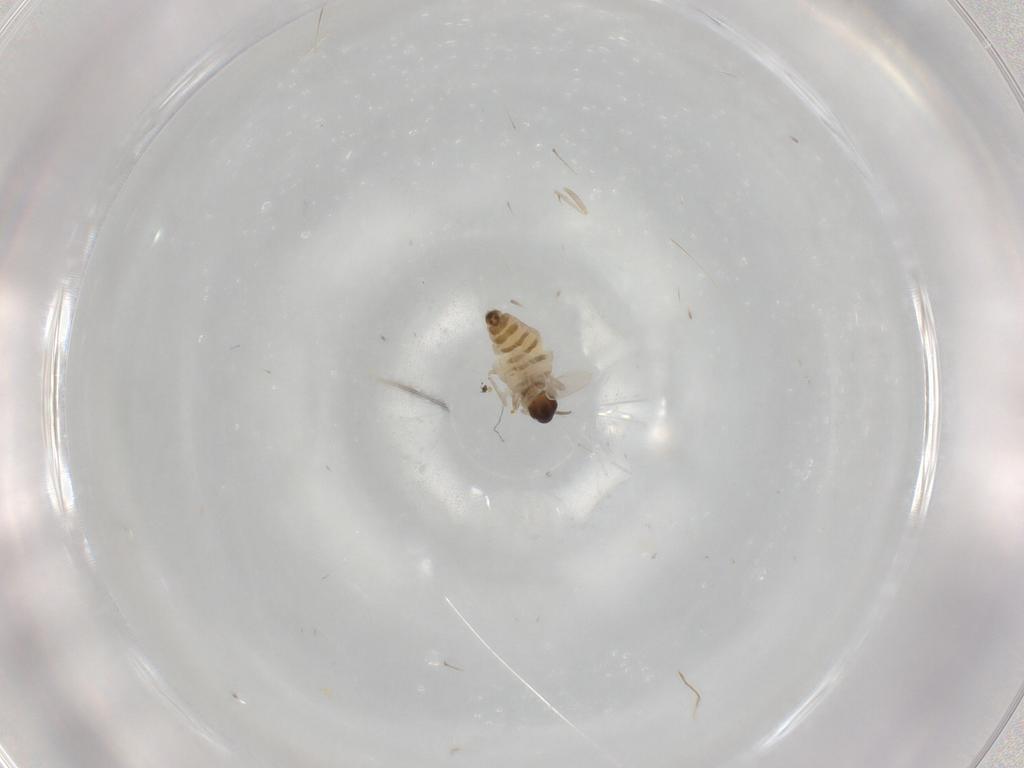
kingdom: Animalia
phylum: Arthropoda
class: Insecta
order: Diptera
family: Cecidomyiidae
